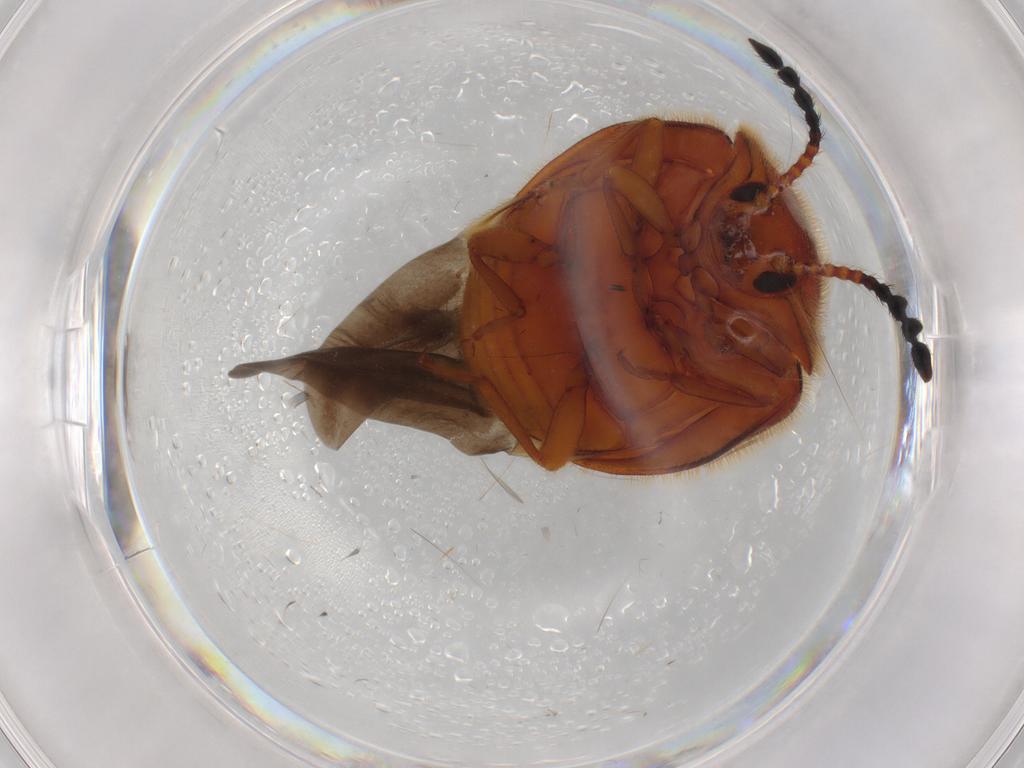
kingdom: Animalia
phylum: Arthropoda
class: Insecta
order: Coleoptera
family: Endomychidae
